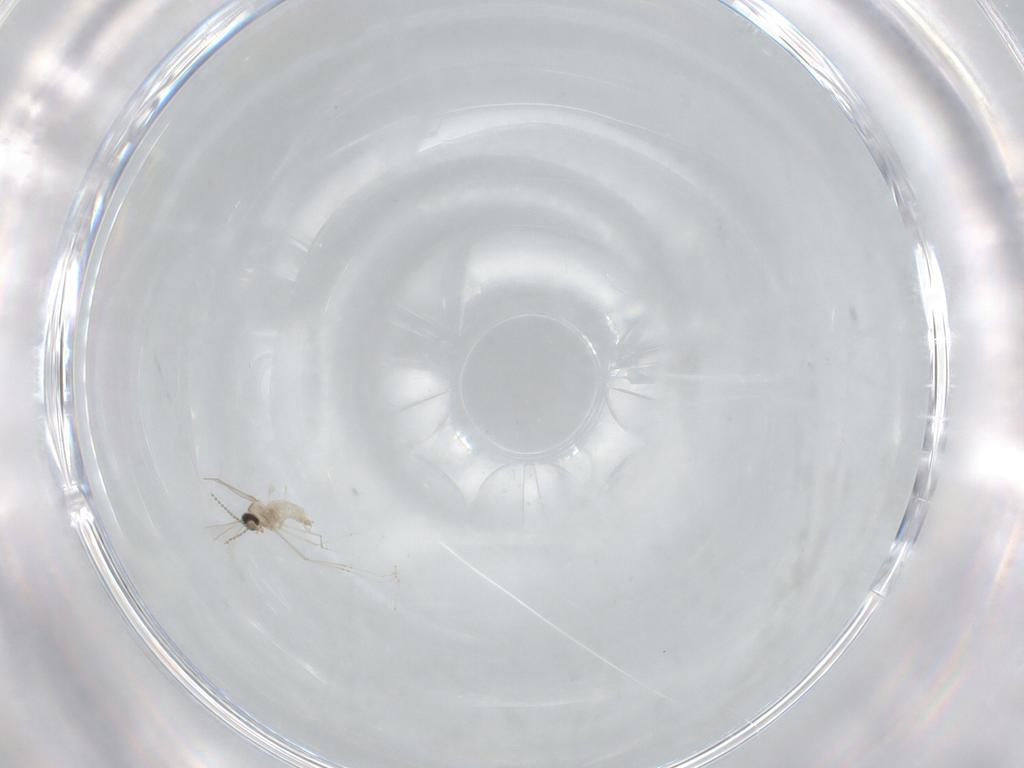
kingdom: Animalia
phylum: Arthropoda
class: Insecta
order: Diptera
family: Cecidomyiidae
